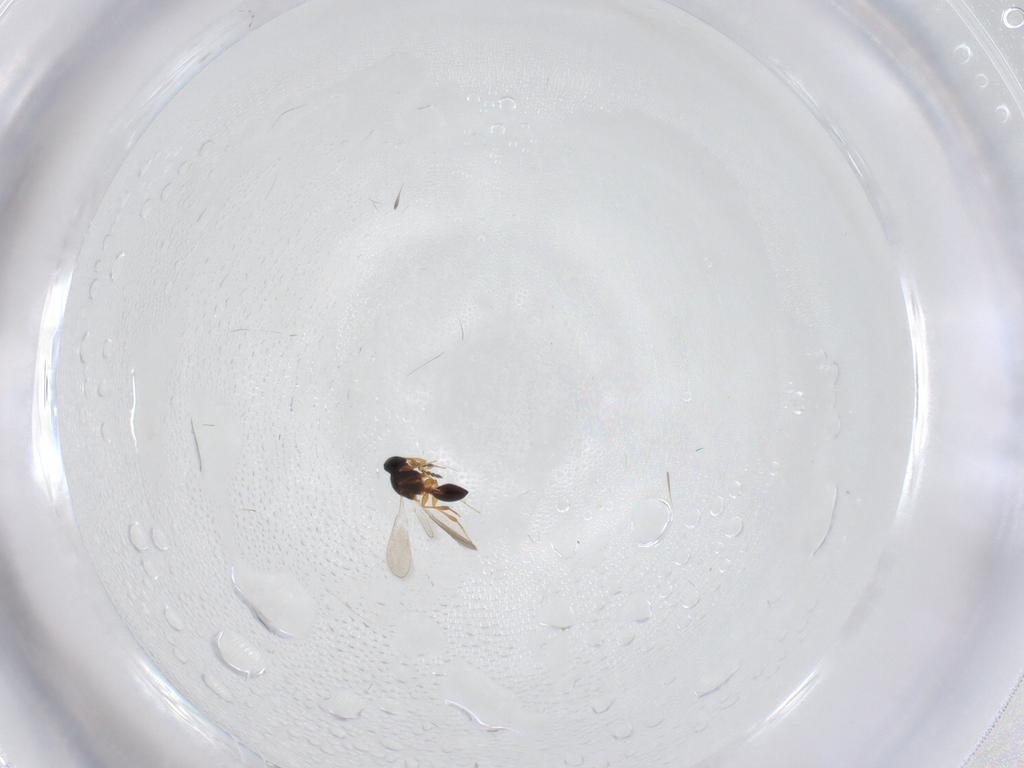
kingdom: Animalia
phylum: Arthropoda
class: Insecta
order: Hymenoptera
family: Platygastridae
